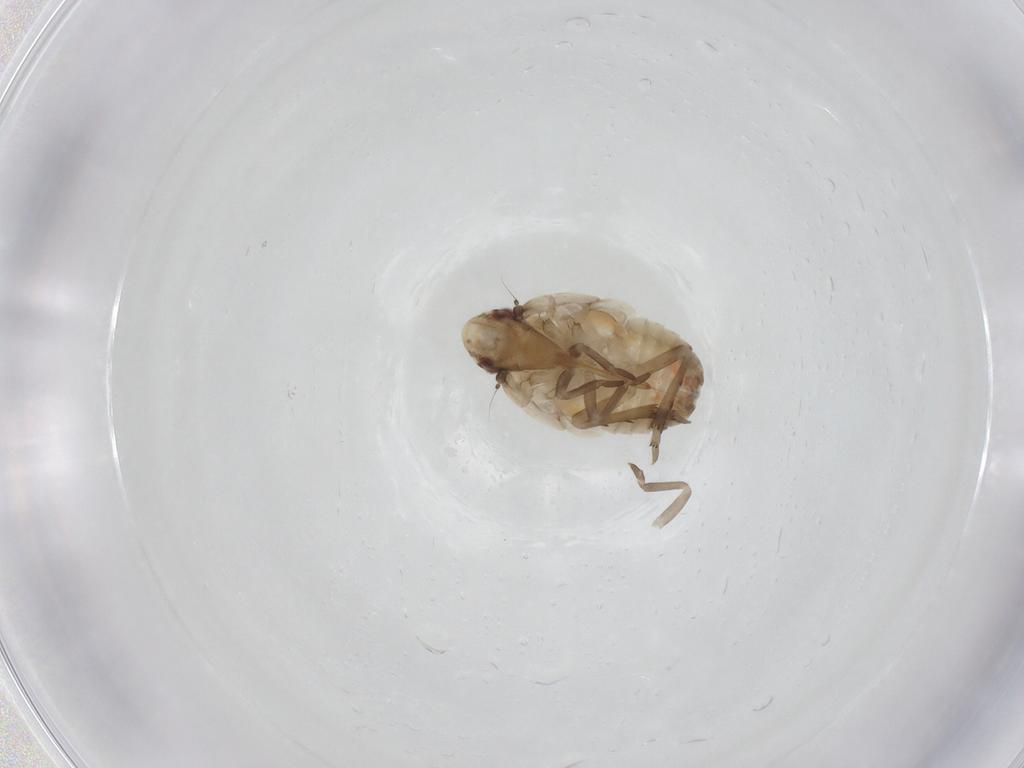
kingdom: Animalia
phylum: Arthropoda
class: Insecta
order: Hemiptera
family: Flatidae
